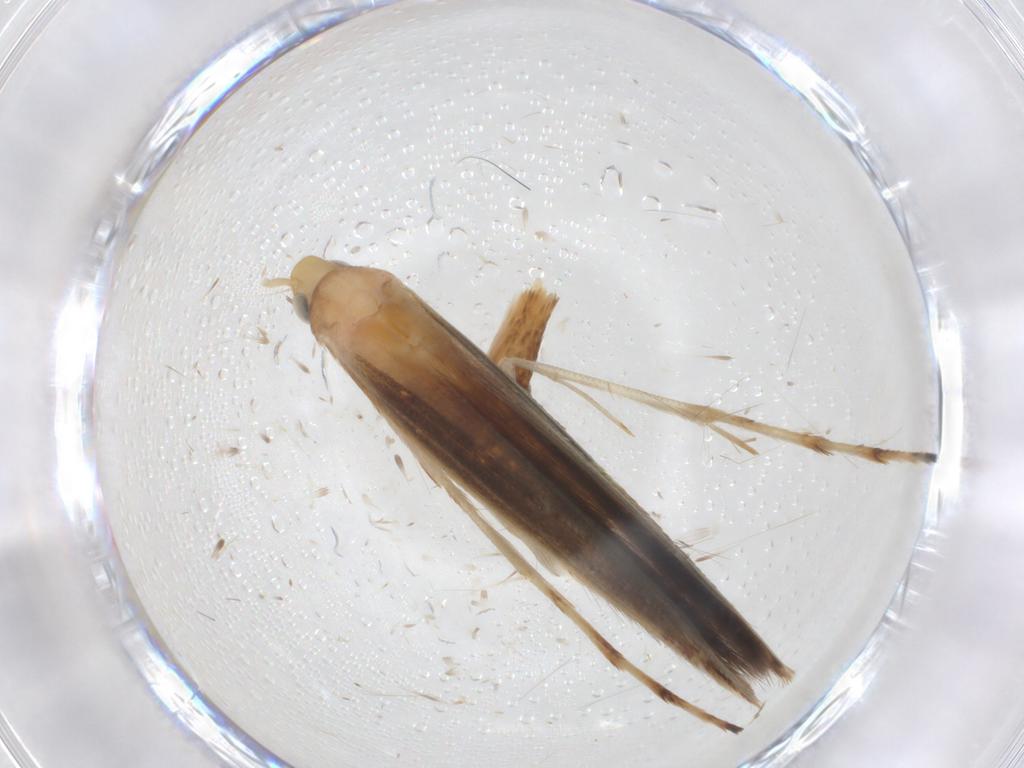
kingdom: Animalia
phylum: Arthropoda
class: Insecta
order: Lepidoptera
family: Gracillariidae
